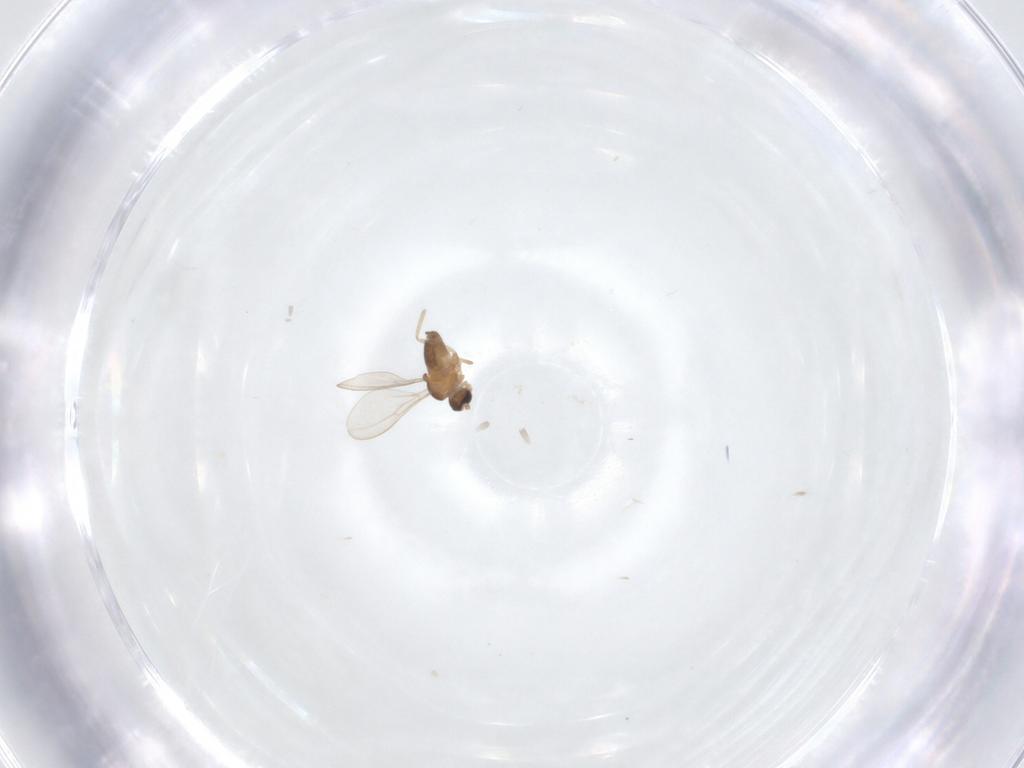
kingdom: Animalia
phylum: Arthropoda
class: Insecta
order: Diptera
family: Cecidomyiidae
